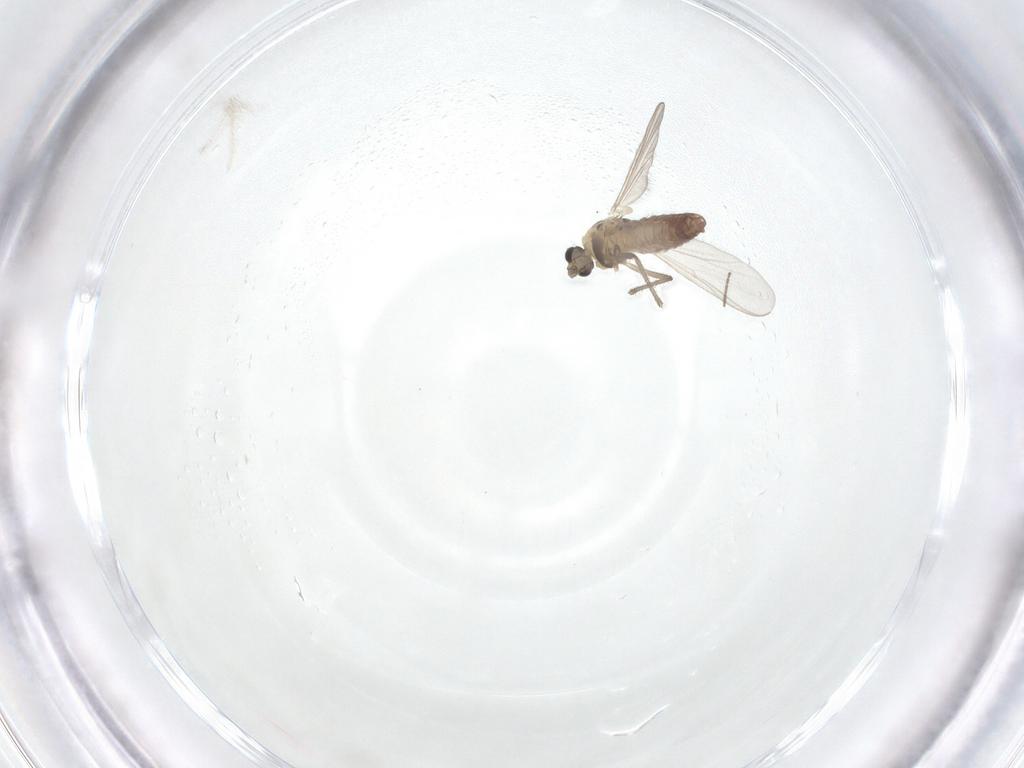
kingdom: Animalia
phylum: Arthropoda
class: Insecta
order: Diptera
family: Chironomidae
